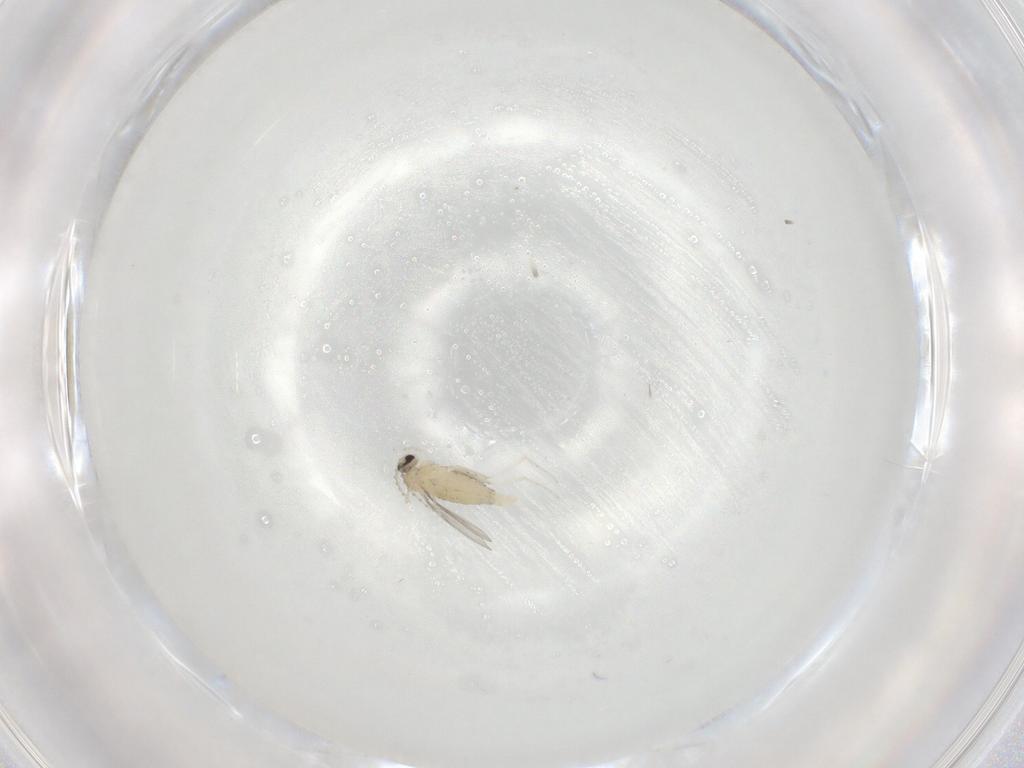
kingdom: Animalia
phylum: Arthropoda
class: Insecta
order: Diptera
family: Cecidomyiidae
